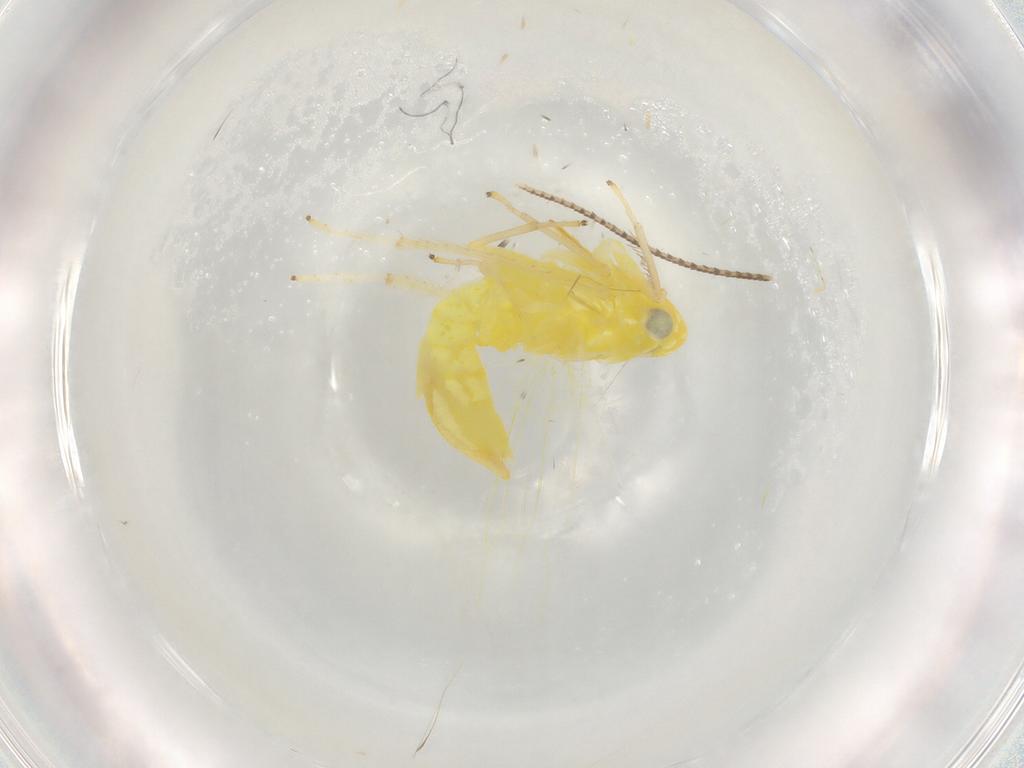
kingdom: Animalia
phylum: Arthropoda
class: Insecta
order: Hemiptera
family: Cicadellidae
